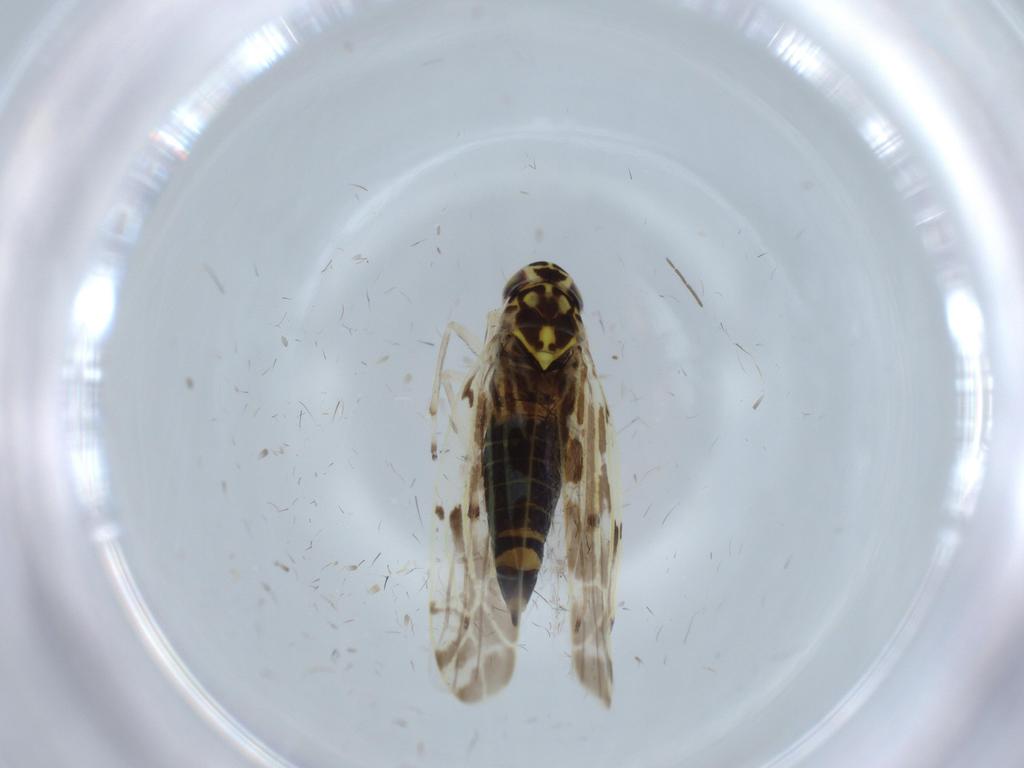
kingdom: Animalia
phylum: Arthropoda
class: Insecta
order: Hemiptera
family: Cicadellidae
